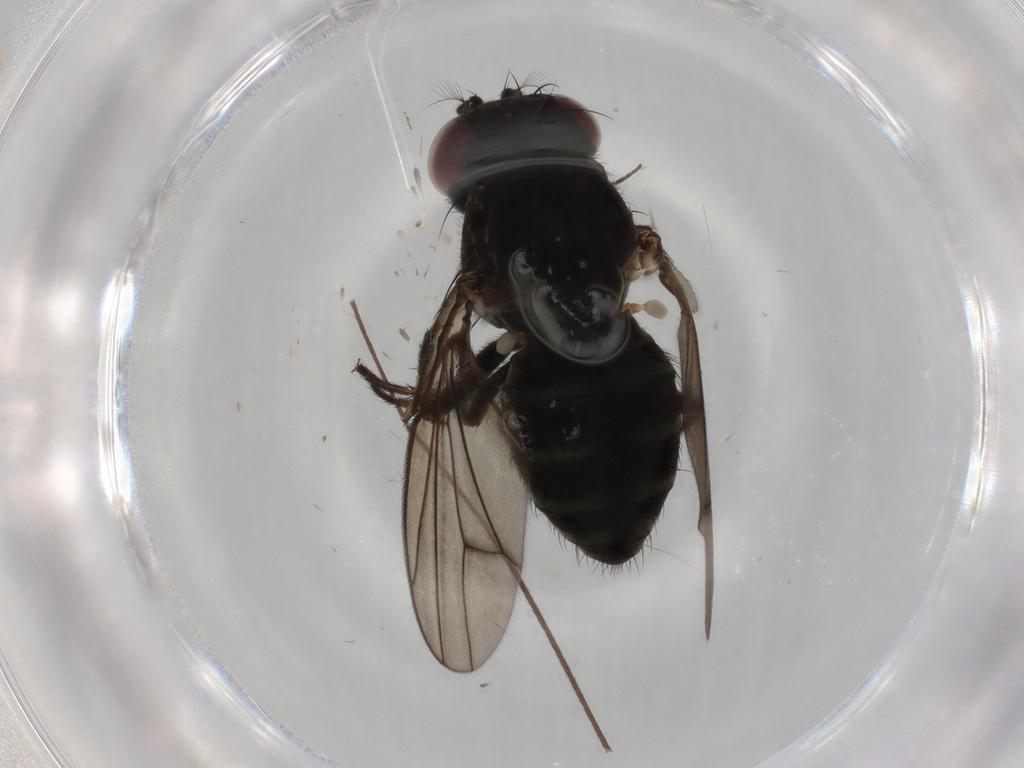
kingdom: Animalia
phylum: Arthropoda
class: Insecta
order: Diptera
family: Ephydridae
